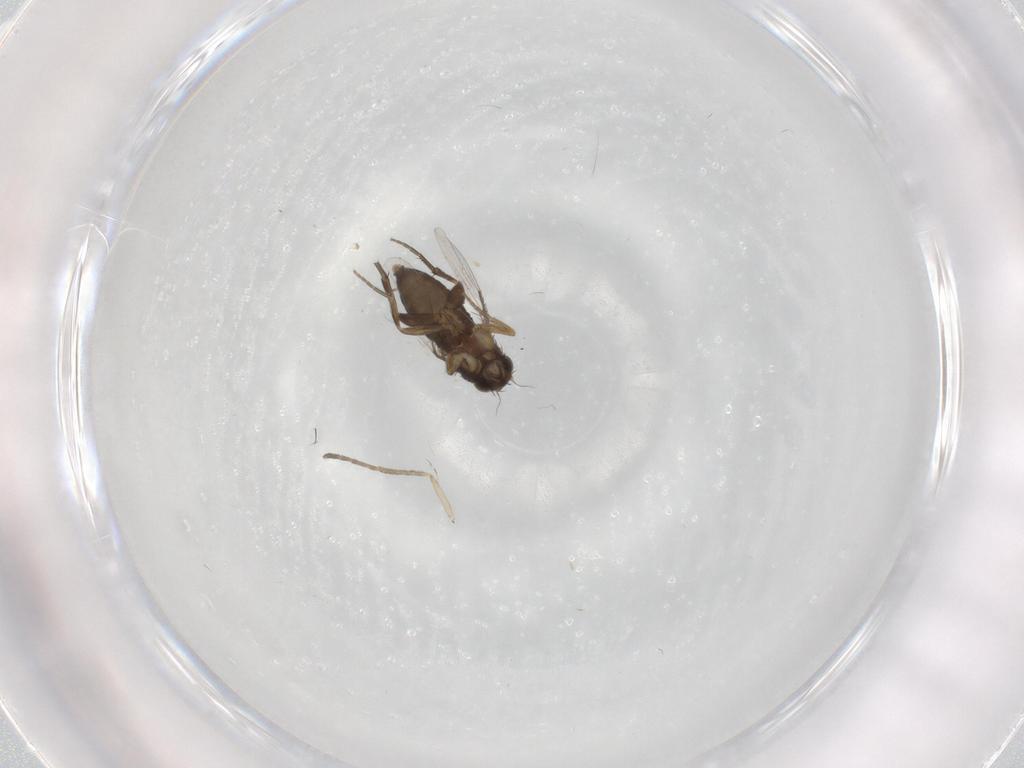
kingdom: Animalia
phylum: Arthropoda
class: Insecta
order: Diptera
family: Phoridae
